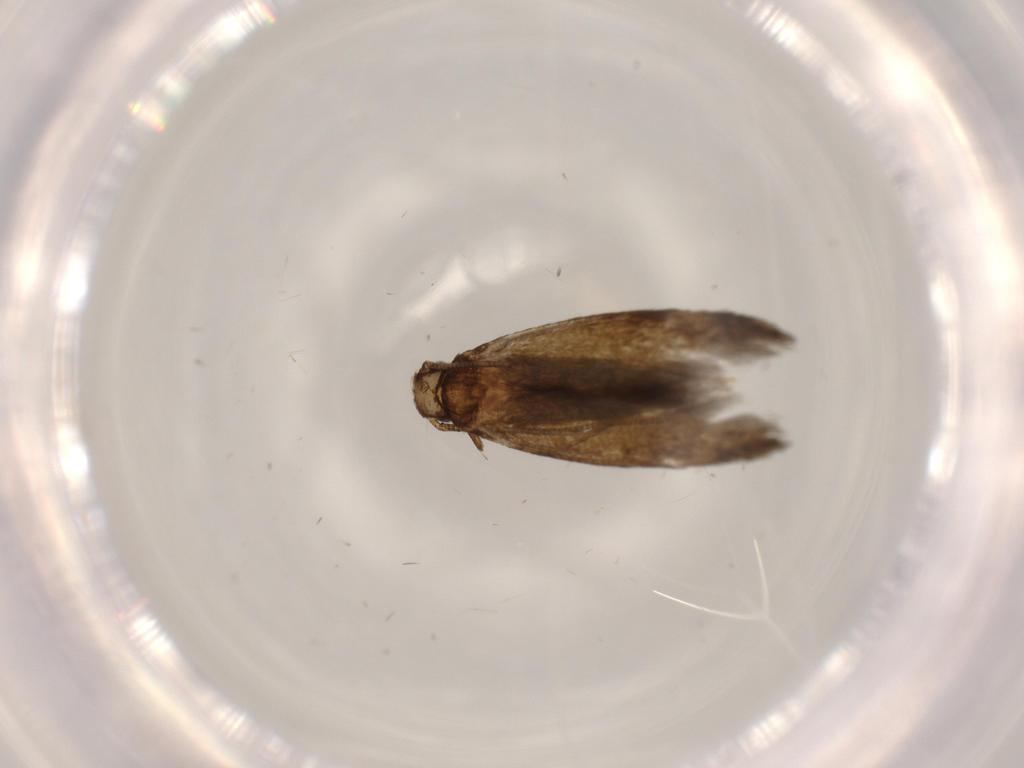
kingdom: Animalia
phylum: Arthropoda
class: Insecta
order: Lepidoptera
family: Tineidae
